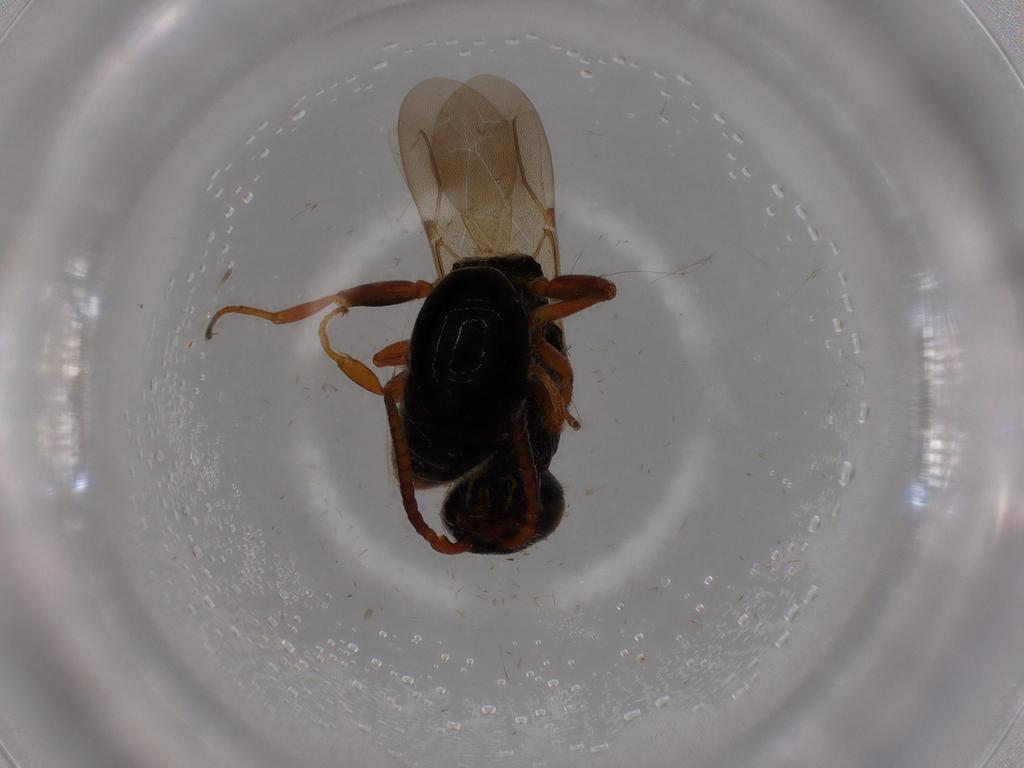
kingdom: Animalia
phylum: Arthropoda
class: Insecta
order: Hymenoptera
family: Bethylidae
